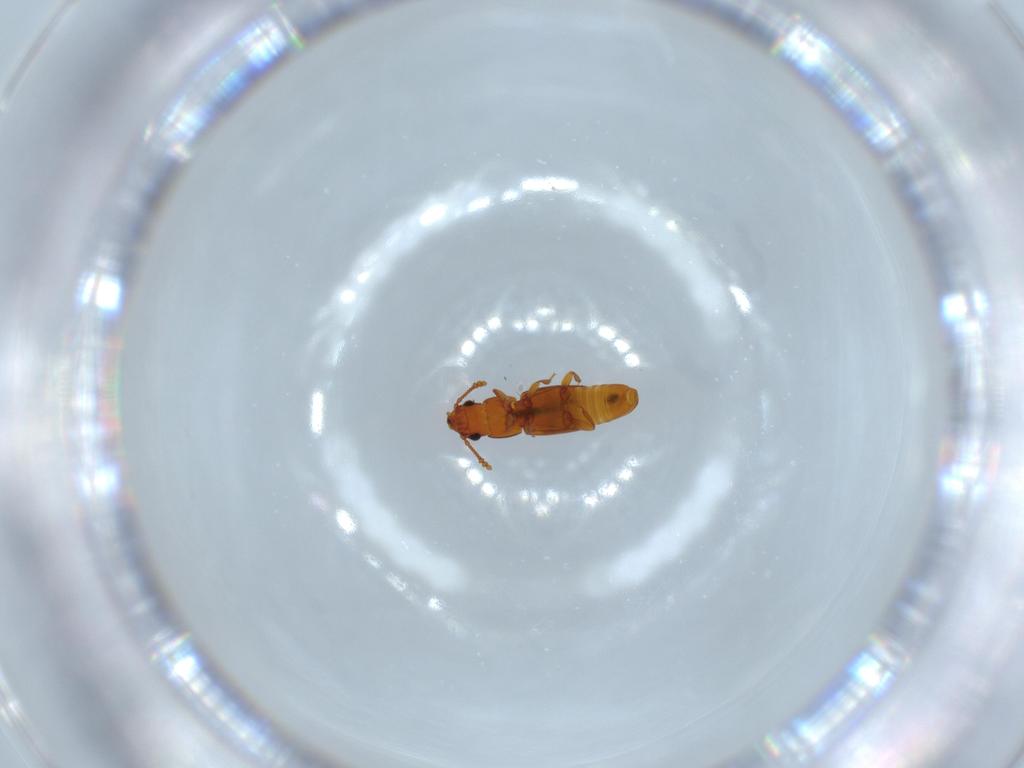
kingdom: Animalia
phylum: Arthropoda
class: Insecta
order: Coleoptera
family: Smicripidae
